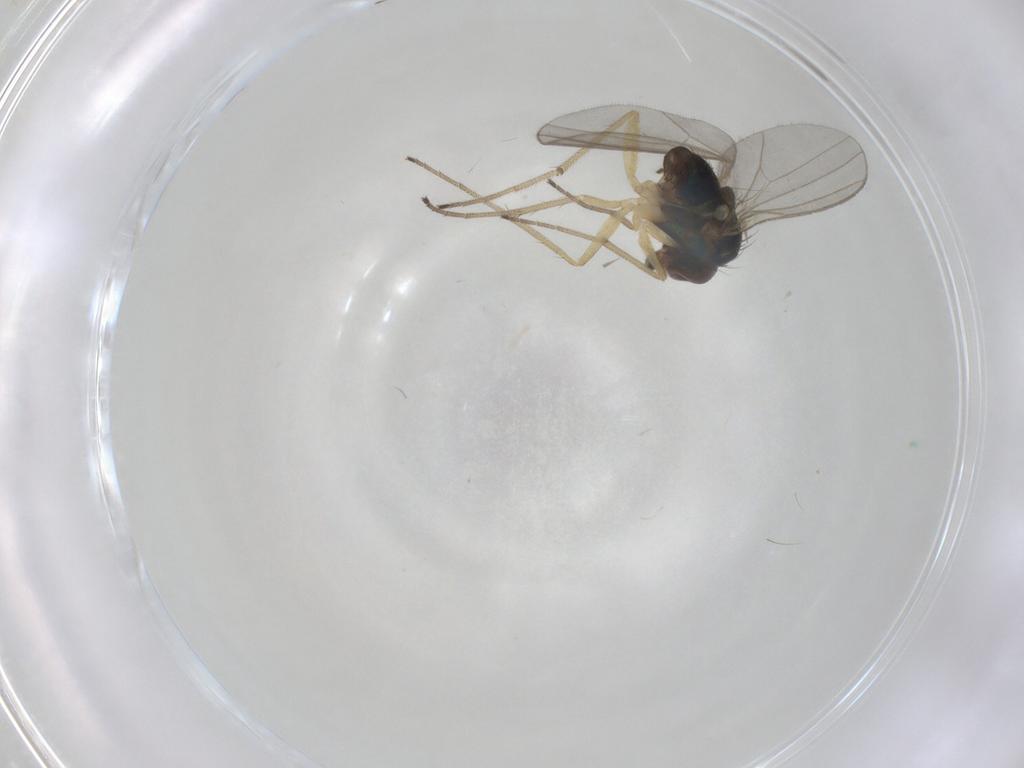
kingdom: Animalia
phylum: Arthropoda
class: Insecta
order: Diptera
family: Dolichopodidae
